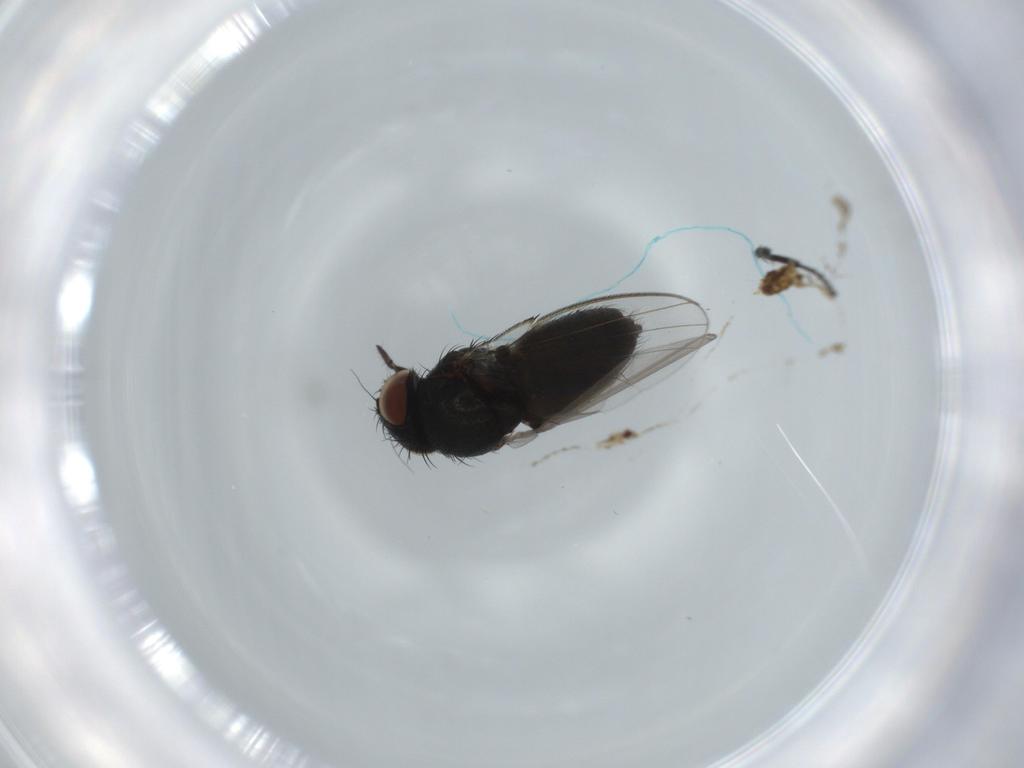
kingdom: Animalia
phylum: Arthropoda
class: Insecta
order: Diptera
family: Milichiidae
